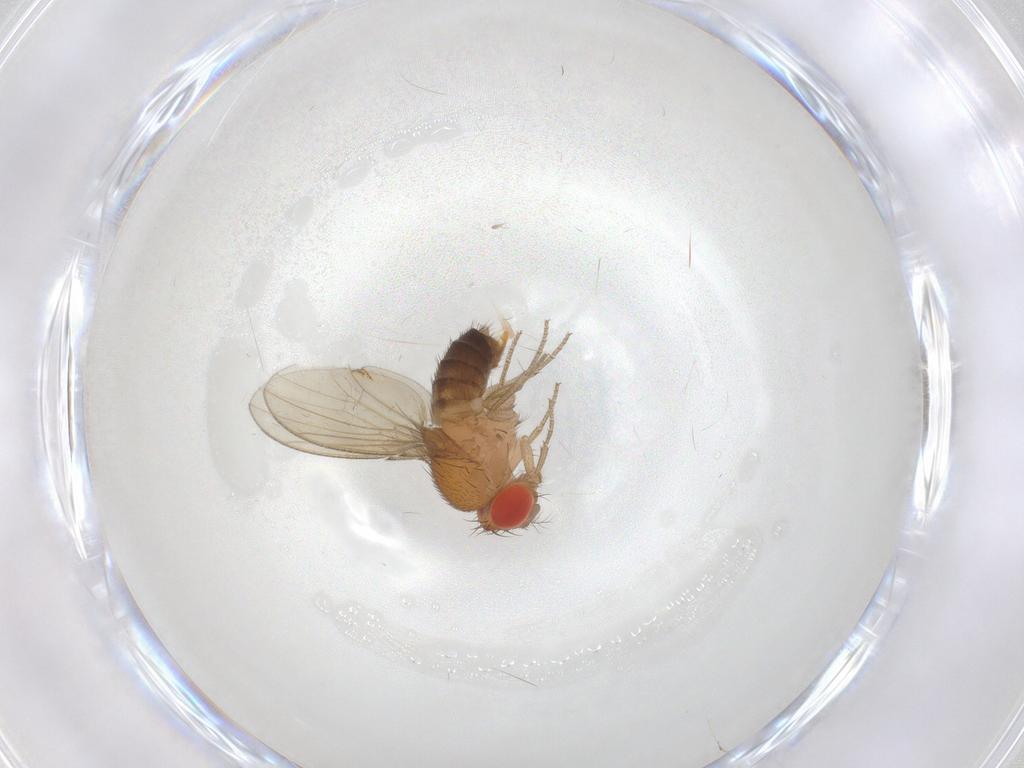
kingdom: Animalia
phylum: Arthropoda
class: Insecta
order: Diptera
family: Drosophilidae
